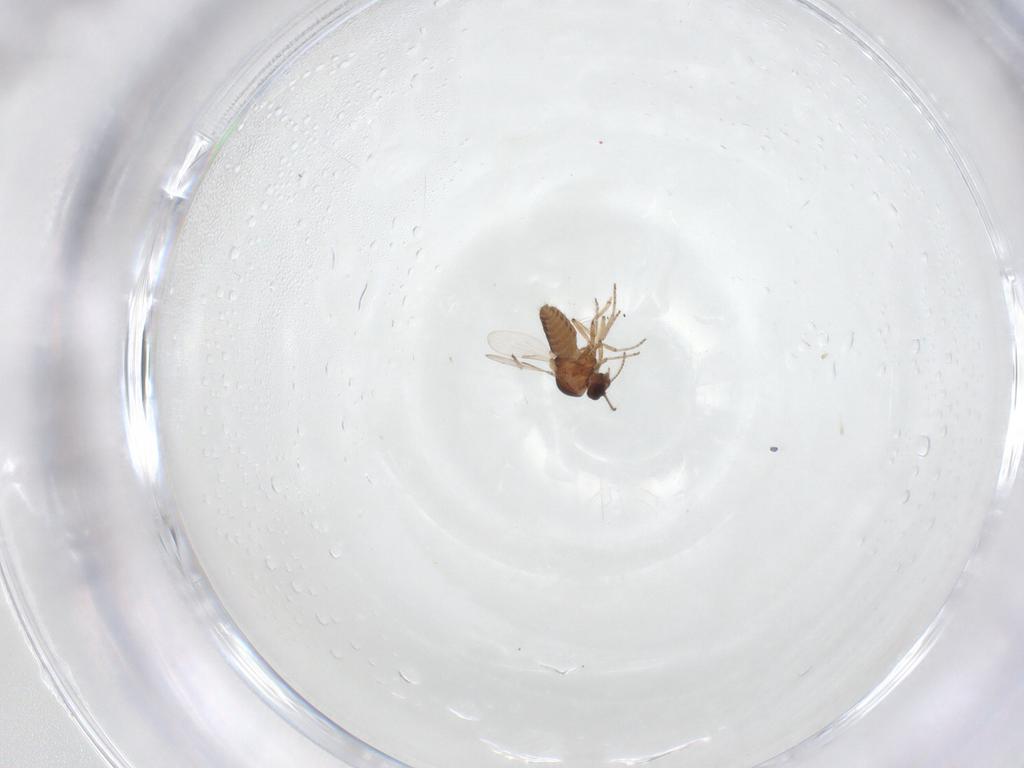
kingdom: Animalia
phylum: Arthropoda
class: Insecta
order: Diptera
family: Ceratopogonidae
